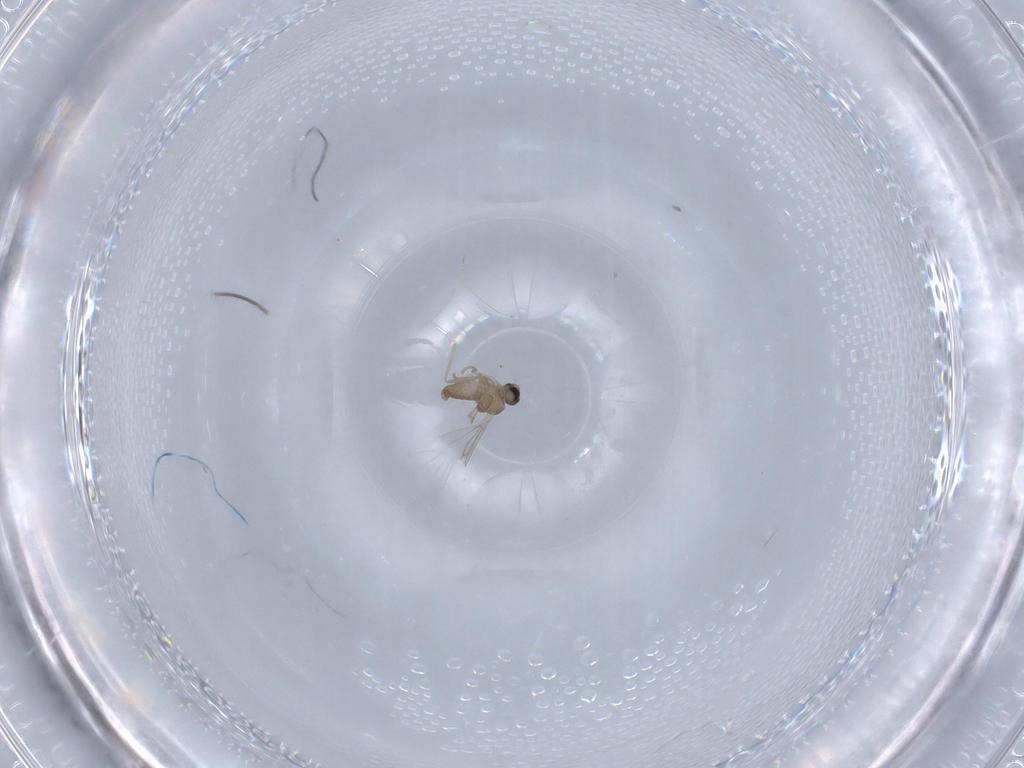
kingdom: Animalia
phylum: Arthropoda
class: Insecta
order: Diptera
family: Cecidomyiidae
